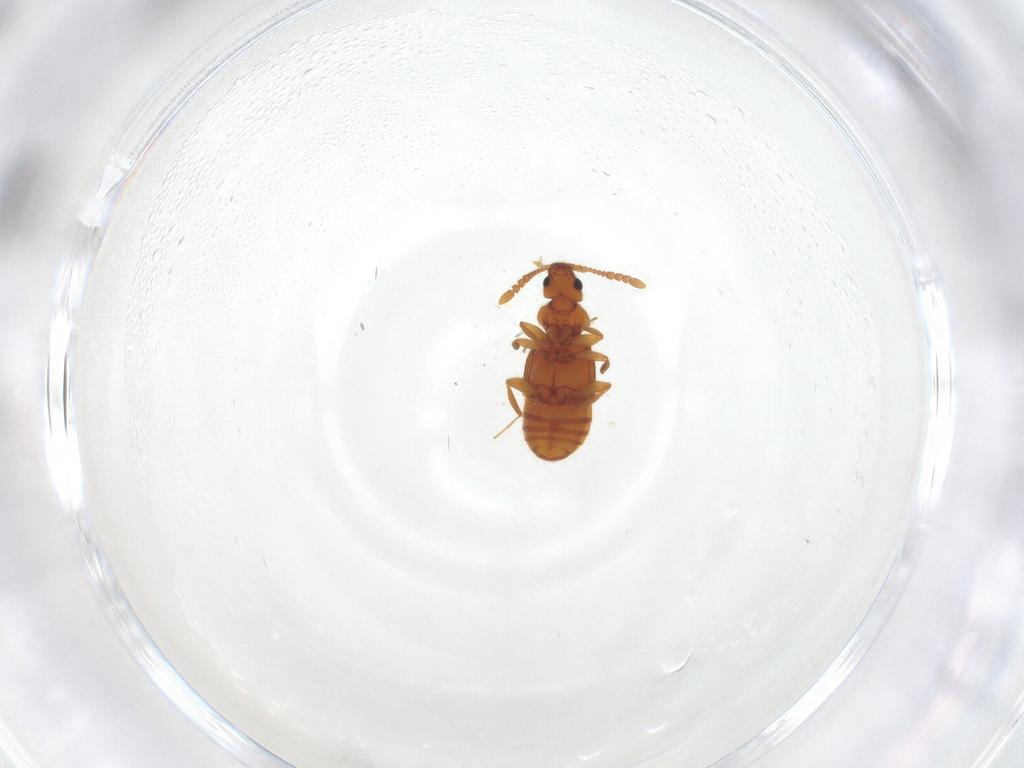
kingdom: Animalia
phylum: Arthropoda
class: Insecta
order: Coleoptera
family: Staphylinidae
